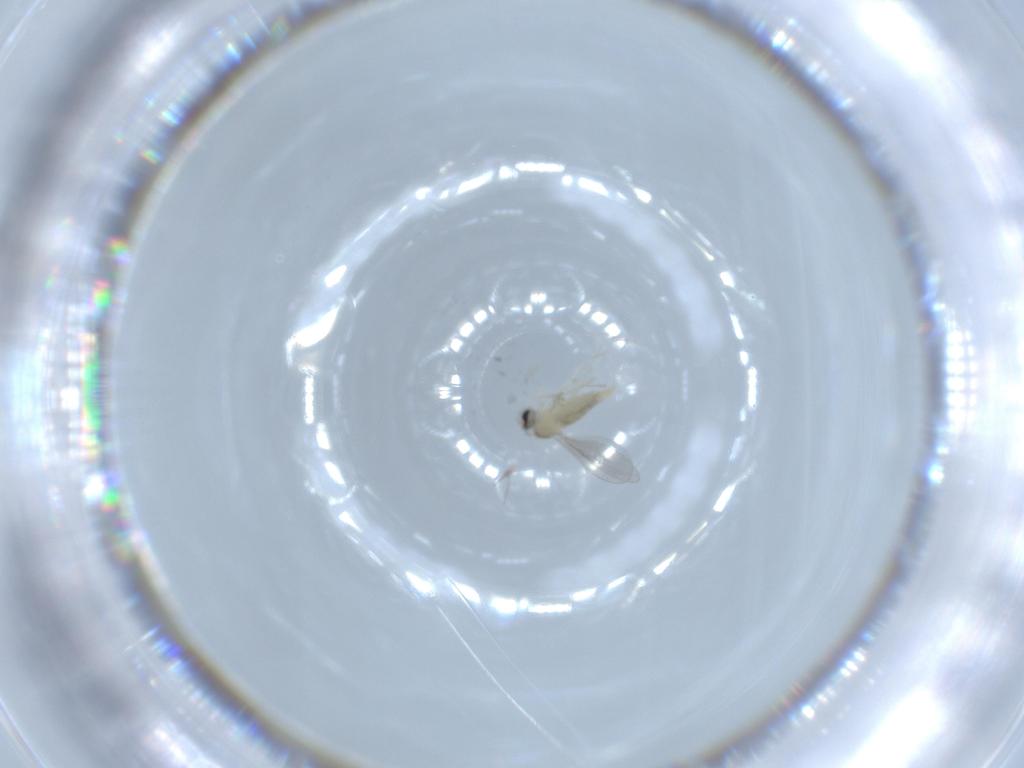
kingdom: Animalia
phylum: Arthropoda
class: Insecta
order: Diptera
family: Cecidomyiidae
